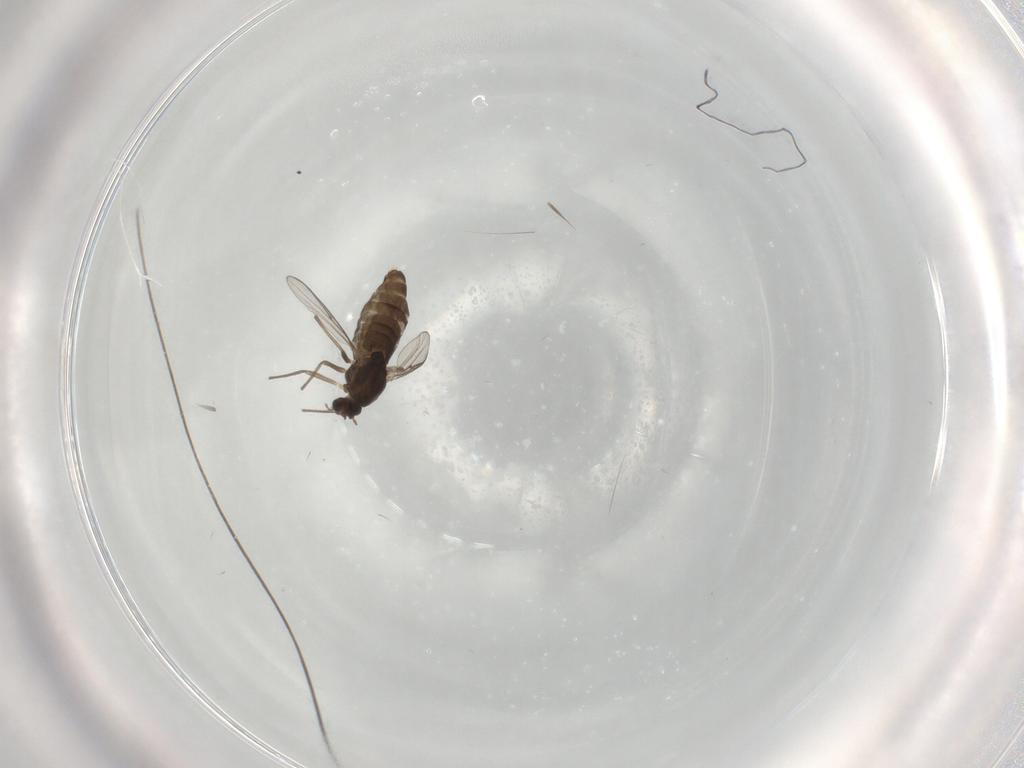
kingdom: Animalia
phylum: Arthropoda
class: Insecta
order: Diptera
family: Chironomidae
